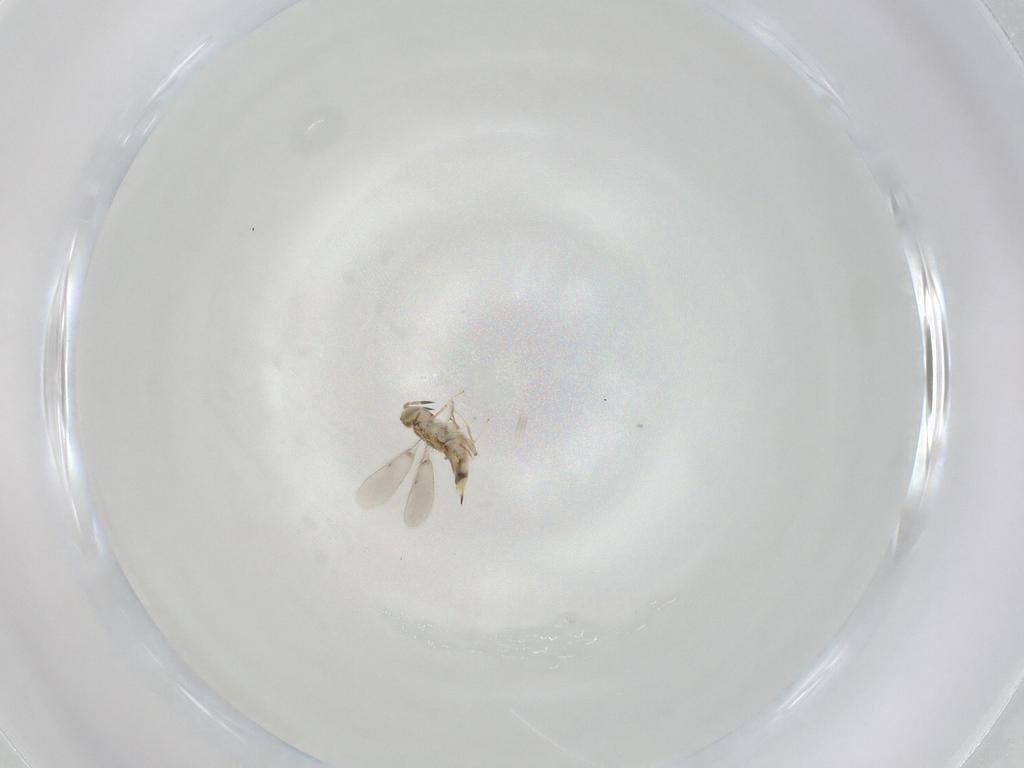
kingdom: Animalia
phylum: Arthropoda
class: Insecta
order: Hymenoptera
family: Aphelinidae
